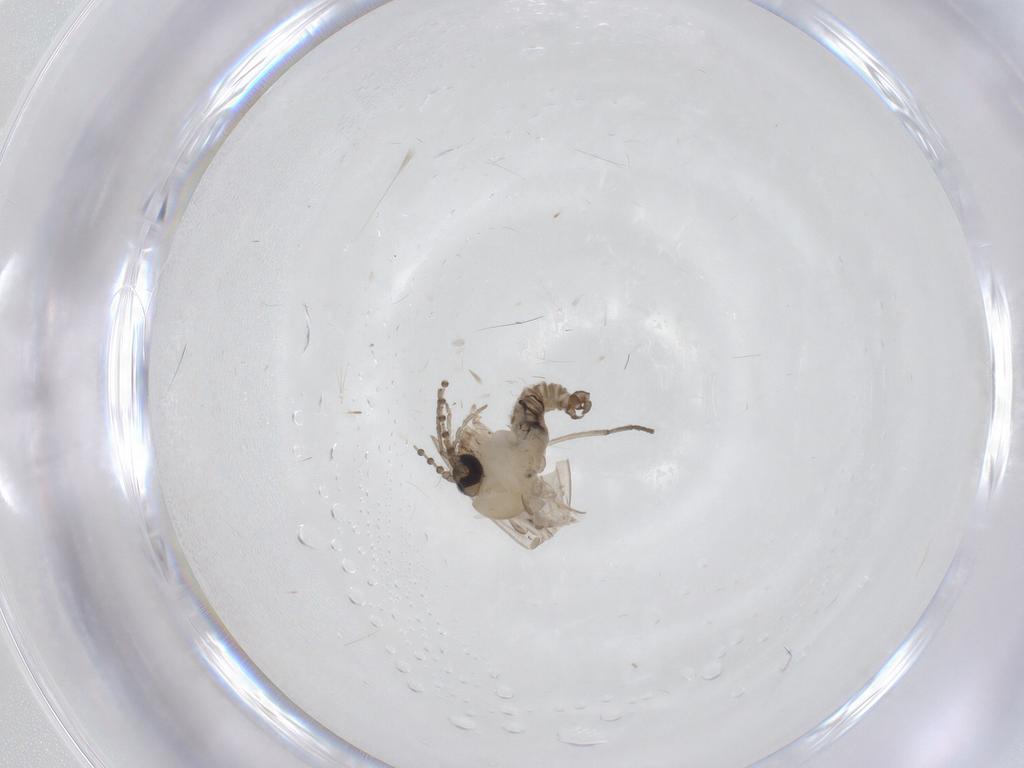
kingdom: Animalia
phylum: Arthropoda
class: Insecta
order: Diptera
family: Psychodidae
